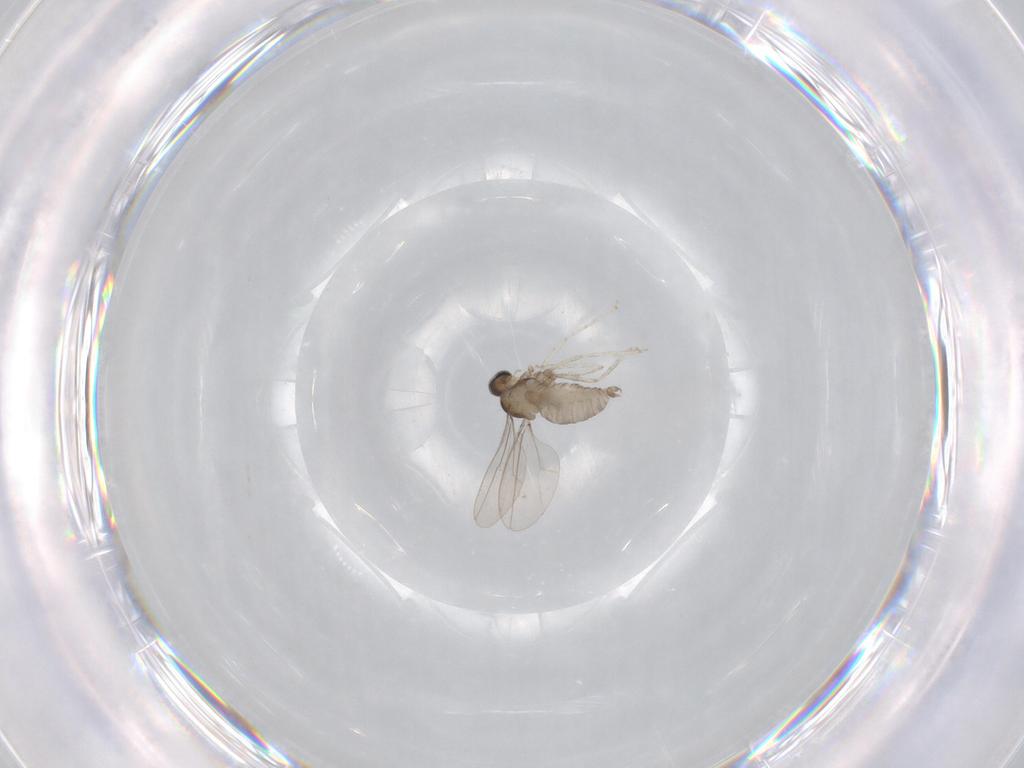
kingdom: Animalia
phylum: Arthropoda
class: Insecta
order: Diptera
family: Cecidomyiidae
